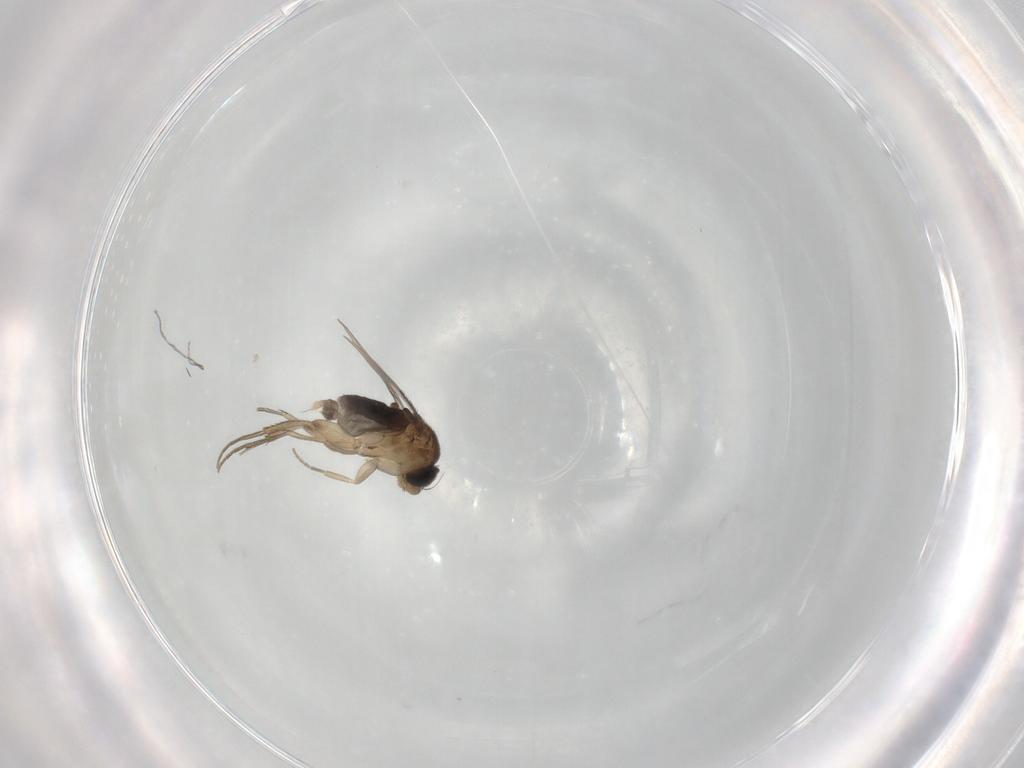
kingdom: Animalia
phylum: Arthropoda
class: Insecta
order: Diptera
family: Phoridae
